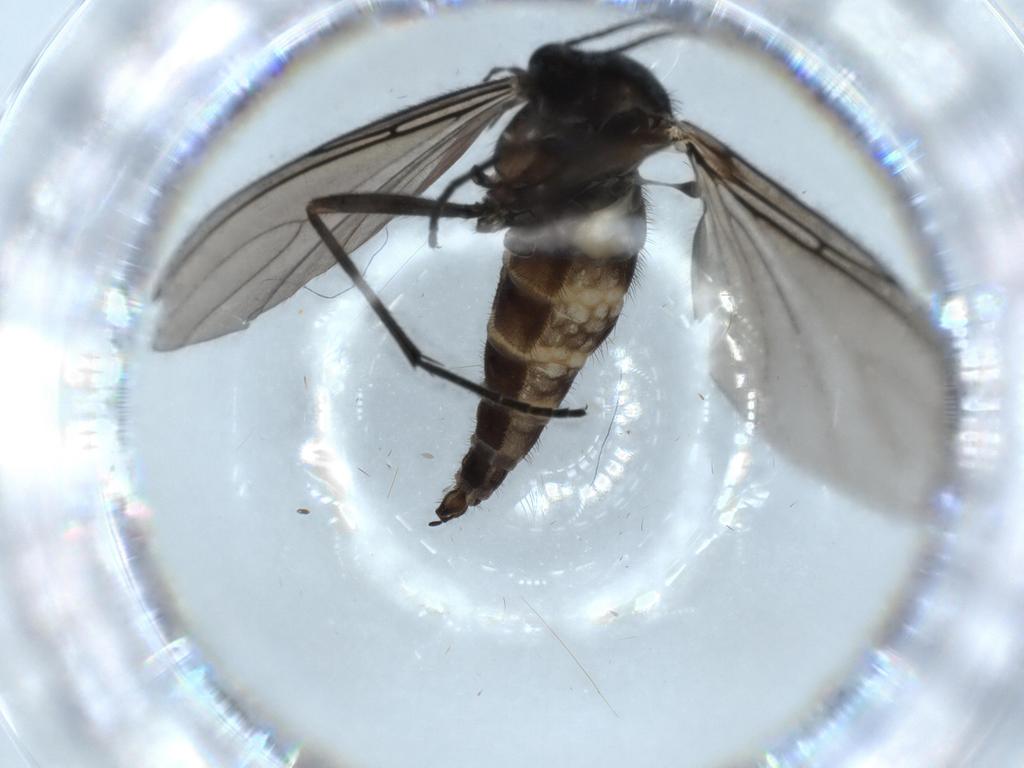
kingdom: Animalia
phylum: Arthropoda
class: Insecta
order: Diptera
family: Sciaridae
